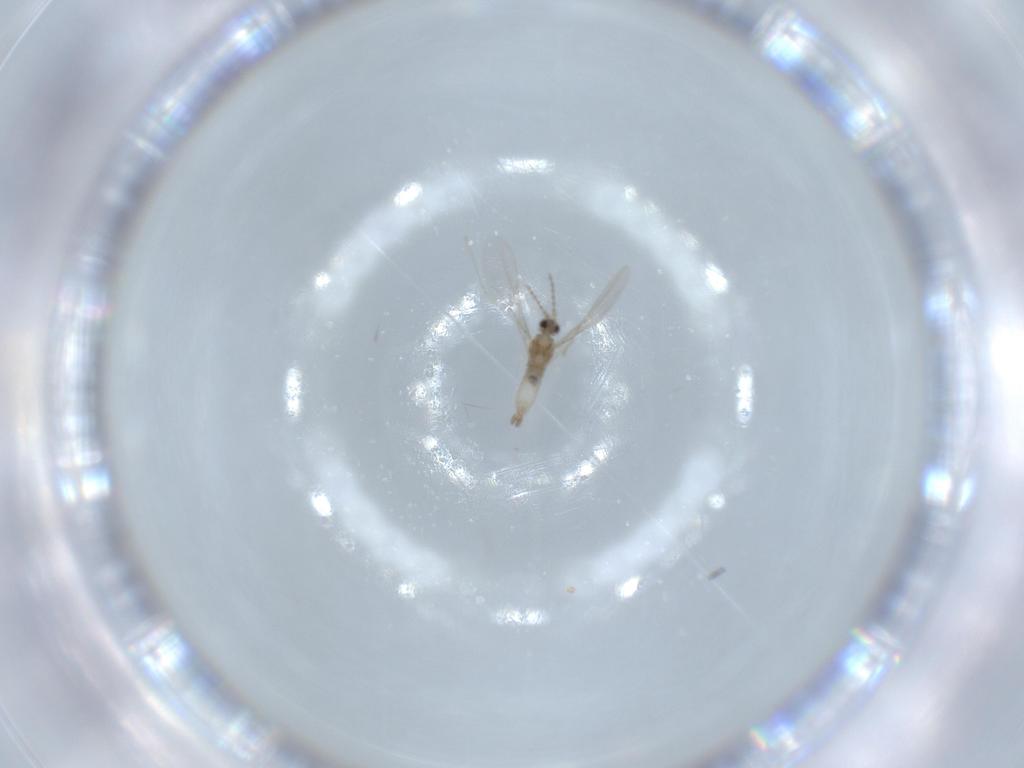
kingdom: Animalia
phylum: Arthropoda
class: Insecta
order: Diptera
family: Cecidomyiidae
